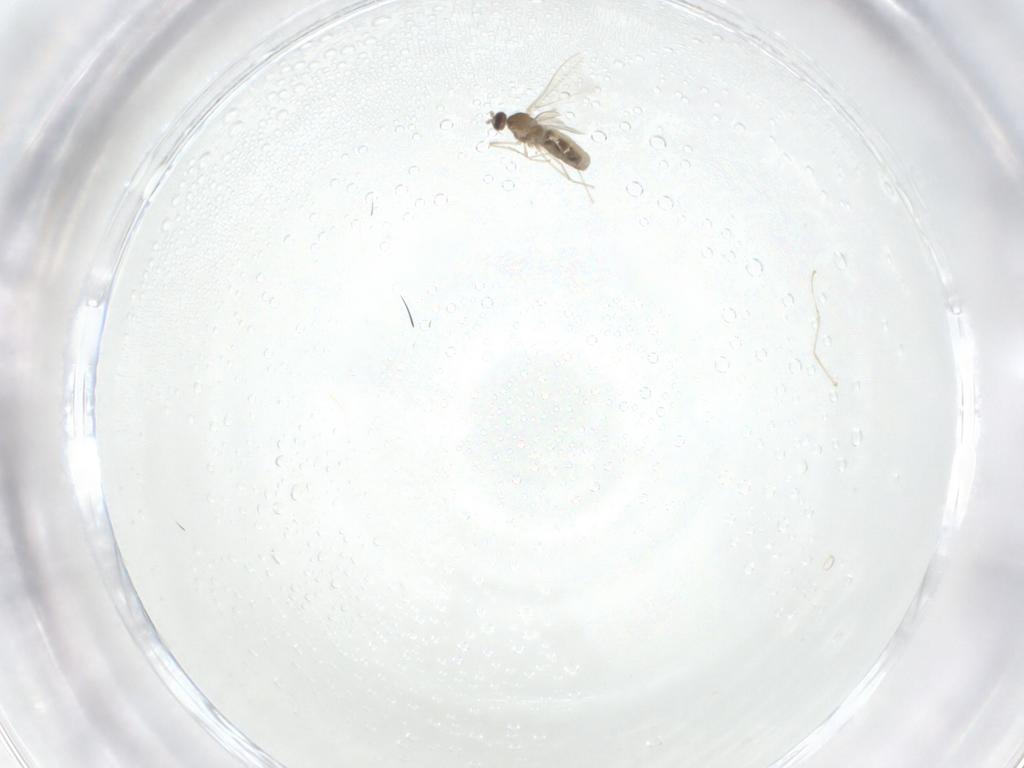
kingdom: Animalia
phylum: Arthropoda
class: Insecta
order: Diptera
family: Cecidomyiidae
